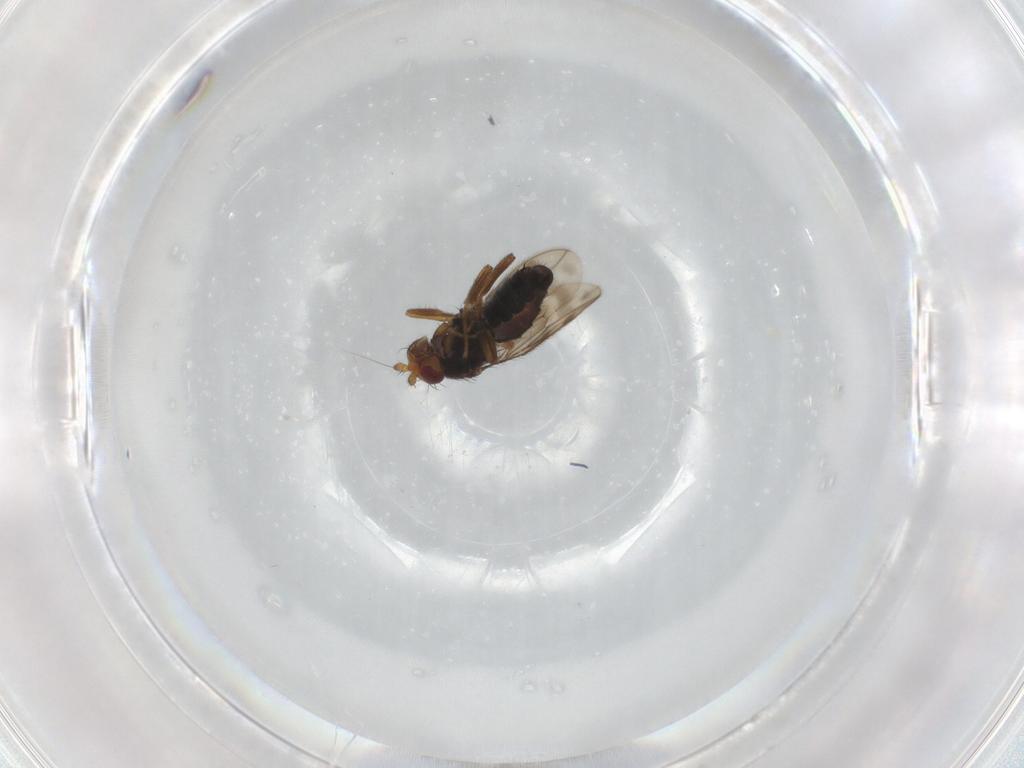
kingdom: Animalia
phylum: Arthropoda
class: Insecta
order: Diptera
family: Sphaeroceridae
